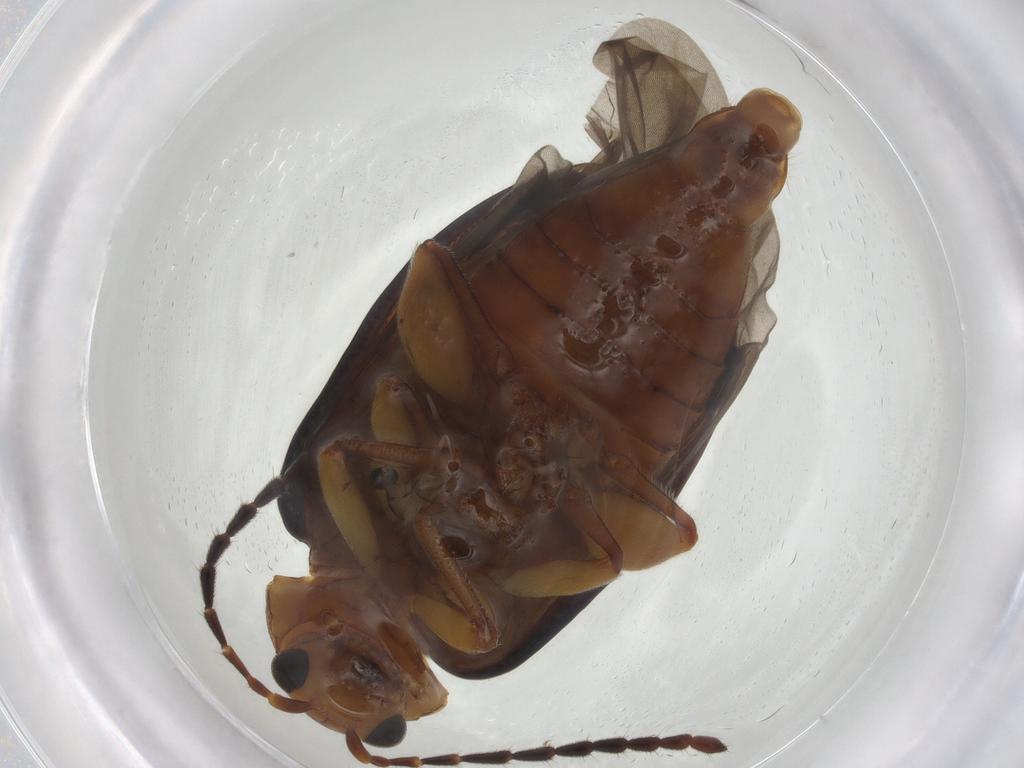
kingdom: Animalia
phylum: Arthropoda
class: Insecta
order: Coleoptera
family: Chrysomelidae
